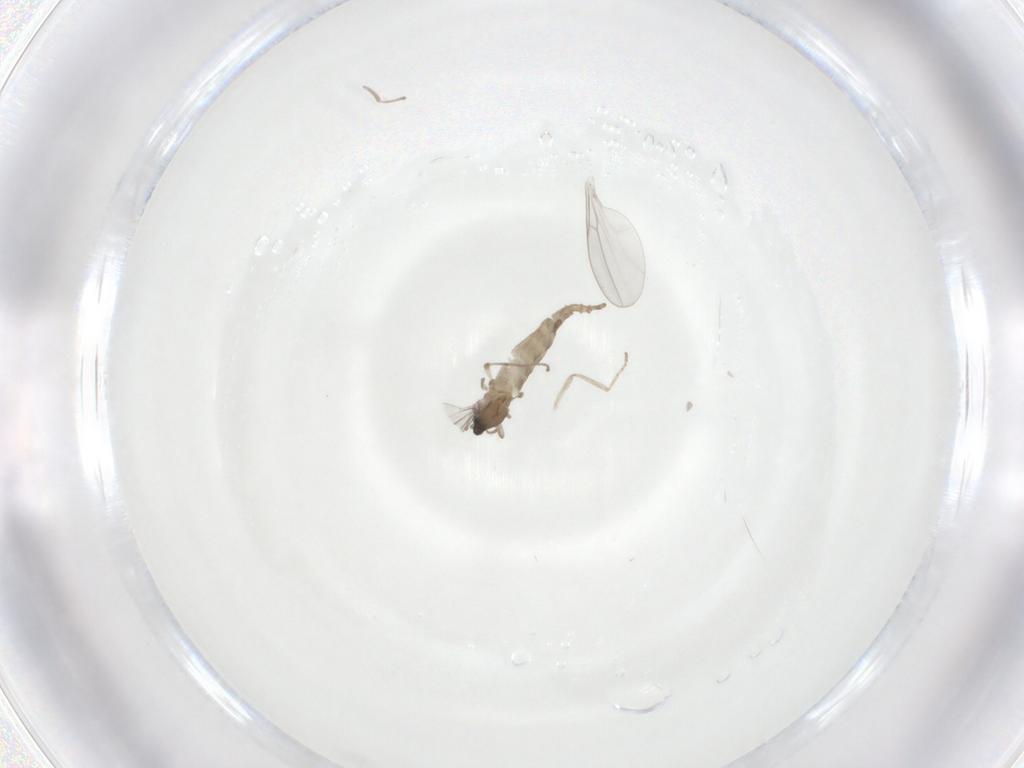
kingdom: Animalia
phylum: Arthropoda
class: Insecta
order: Diptera
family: Cecidomyiidae
